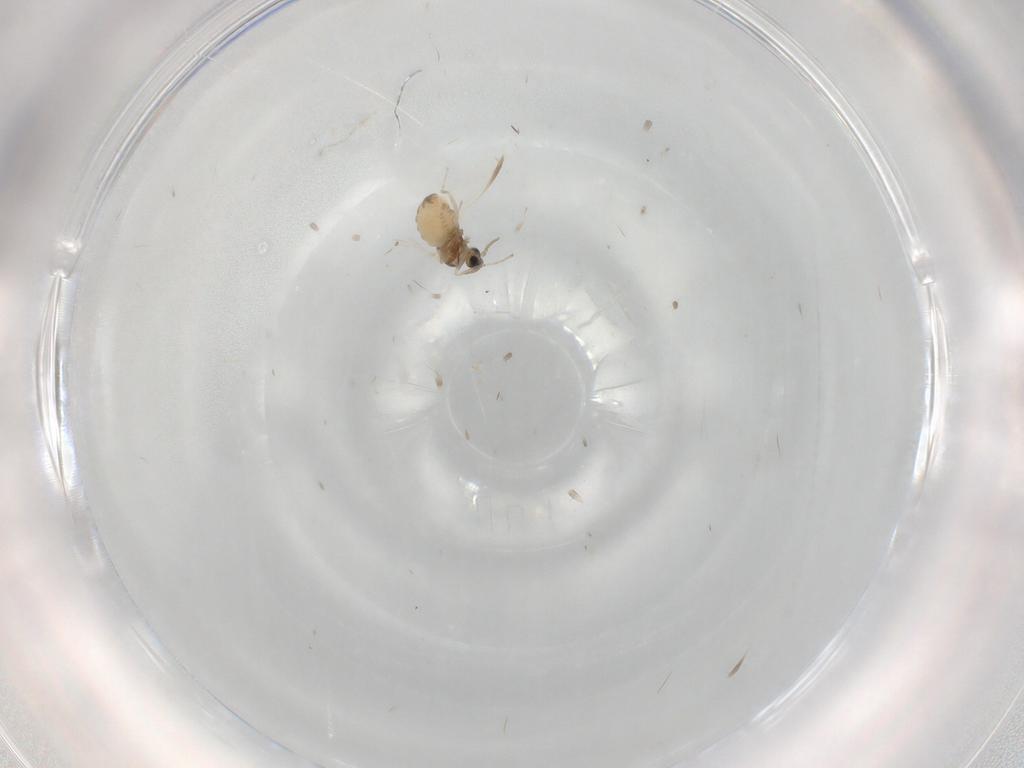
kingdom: Animalia
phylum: Arthropoda
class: Insecta
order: Diptera
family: Cecidomyiidae
